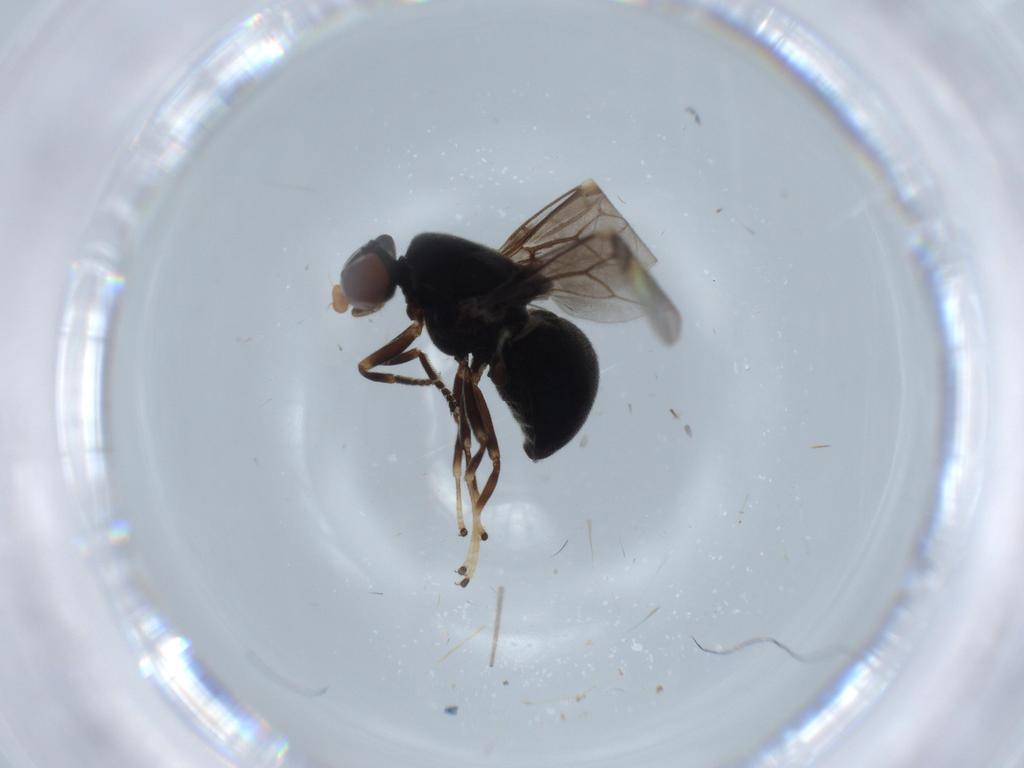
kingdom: Animalia
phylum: Arthropoda
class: Insecta
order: Diptera
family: Stratiomyidae
